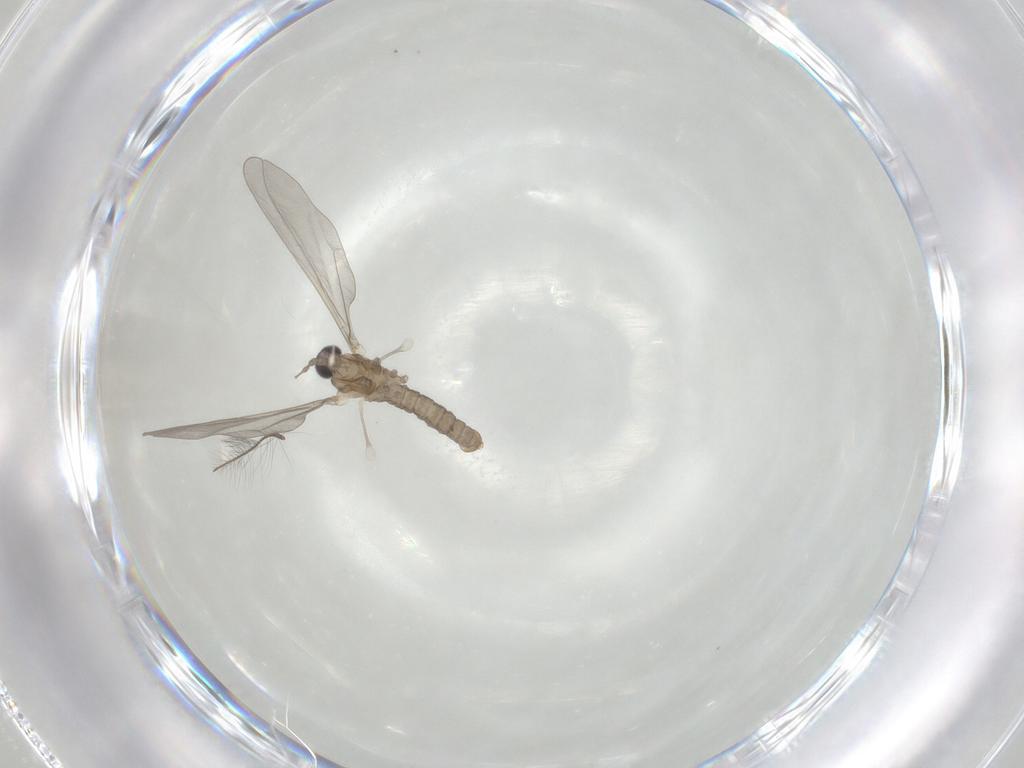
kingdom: Animalia
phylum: Arthropoda
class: Insecta
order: Diptera
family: Cecidomyiidae
